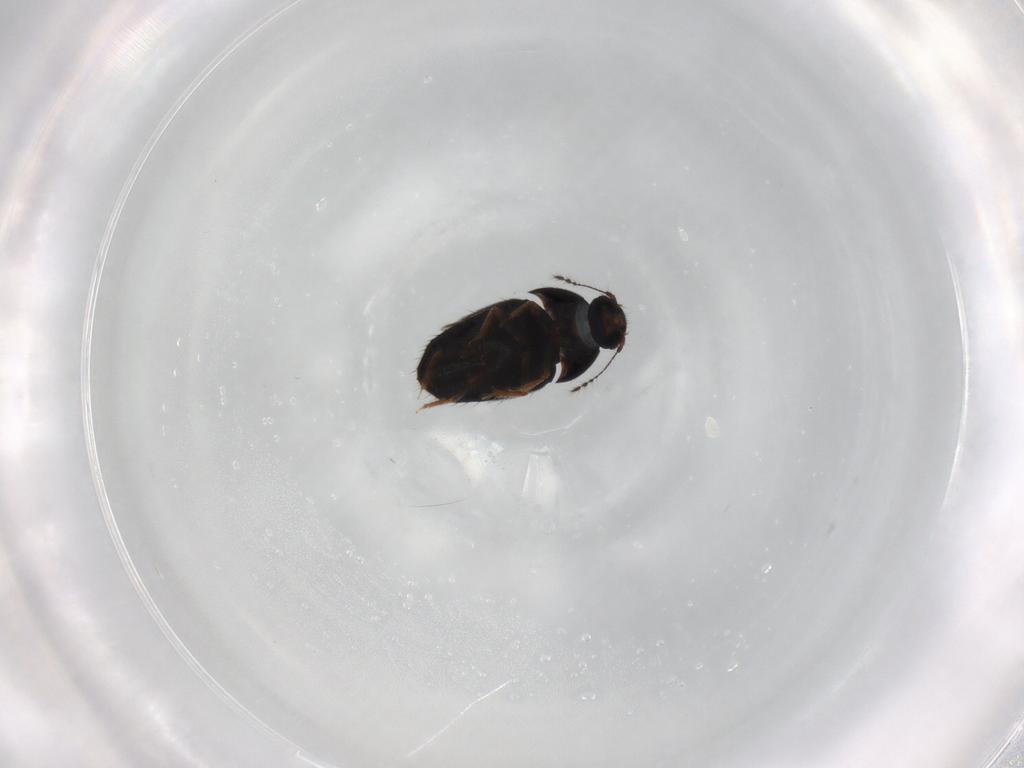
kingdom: Animalia
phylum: Arthropoda
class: Insecta
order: Coleoptera
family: Ptiliidae
